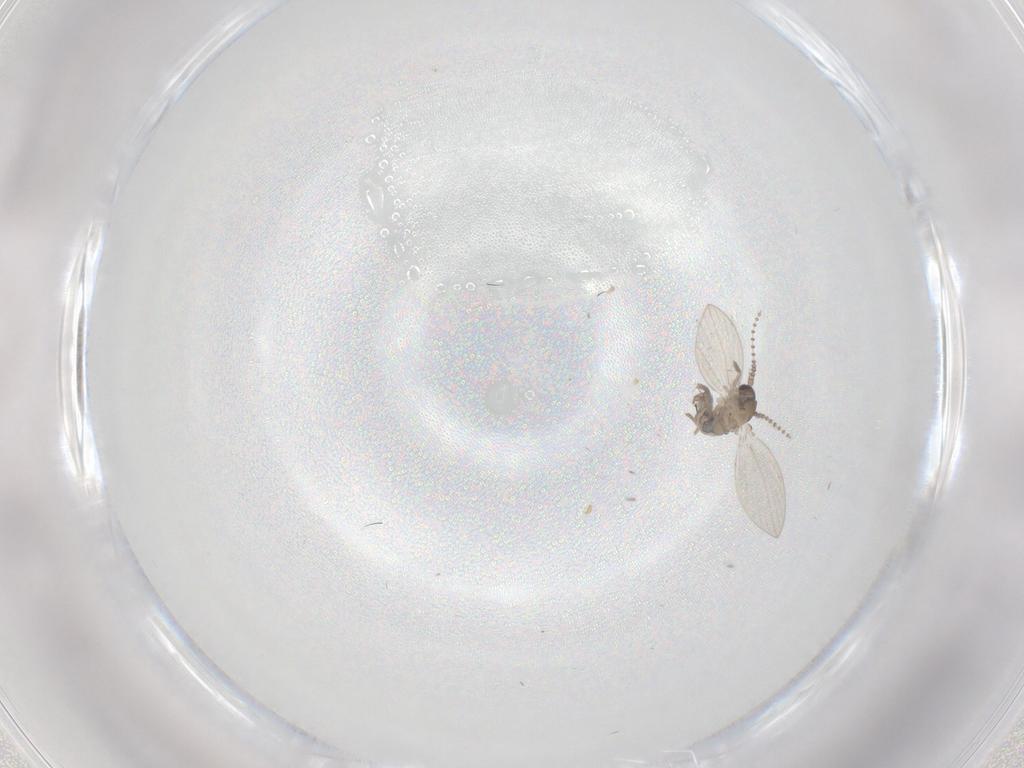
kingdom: Animalia
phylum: Arthropoda
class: Insecta
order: Diptera
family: Psychodidae
